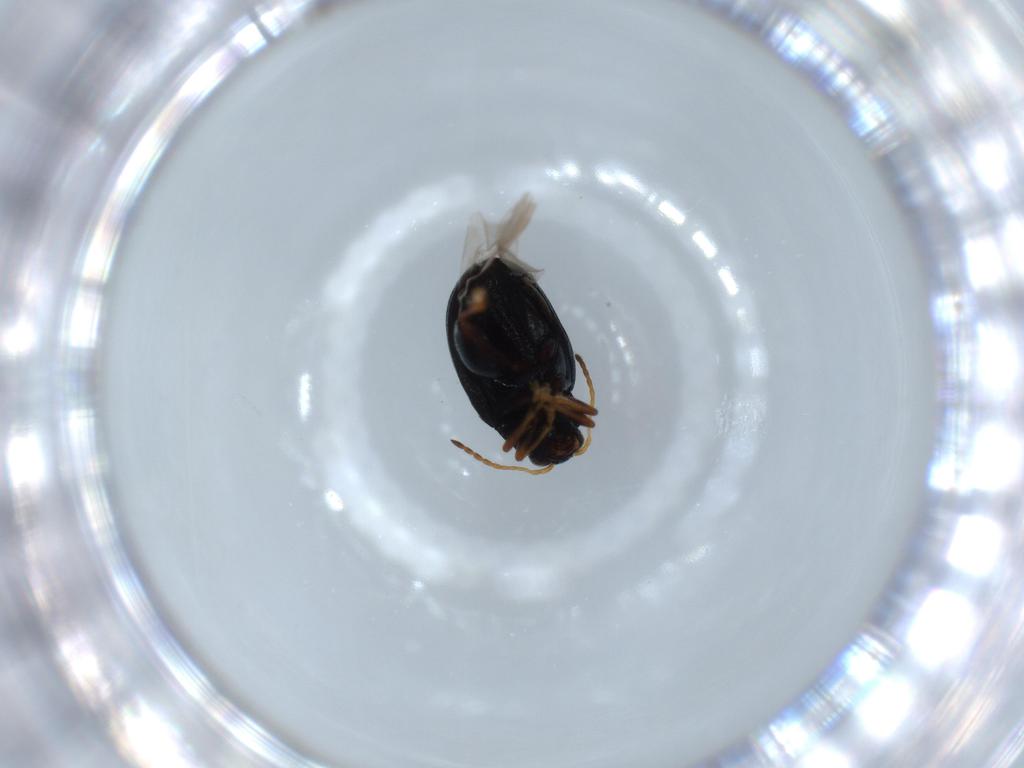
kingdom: Animalia
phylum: Arthropoda
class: Insecta
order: Coleoptera
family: Chrysomelidae
